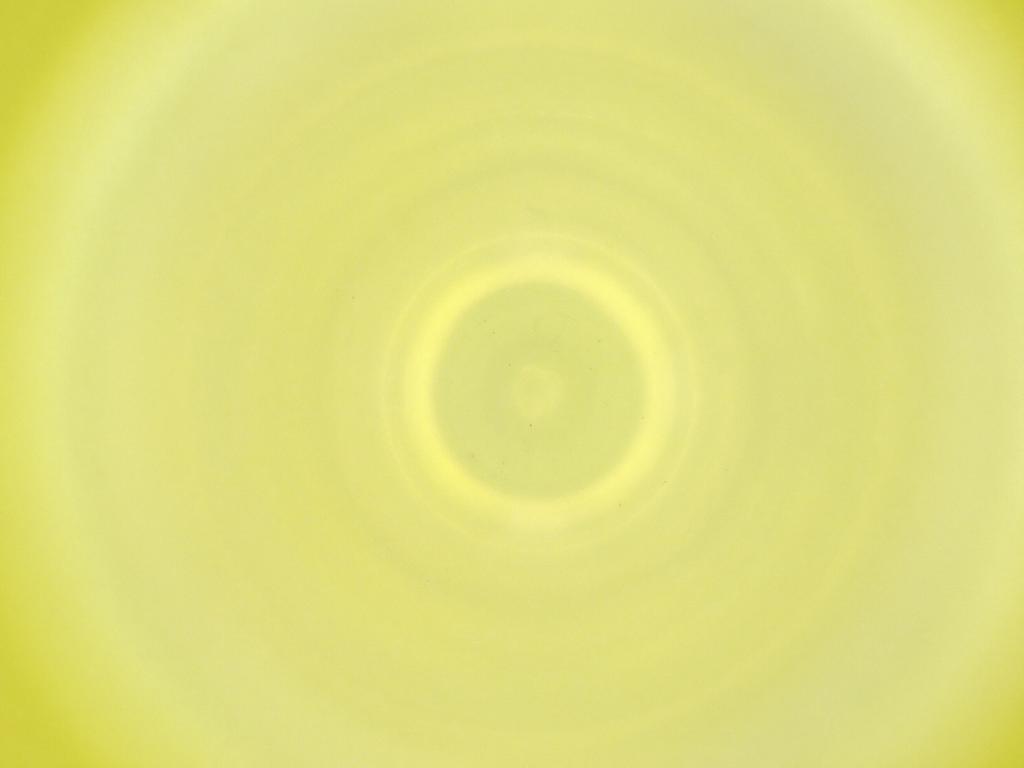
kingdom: Animalia
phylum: Arthropoda
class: Insecta
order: Diptera
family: Cecidomyiidae
